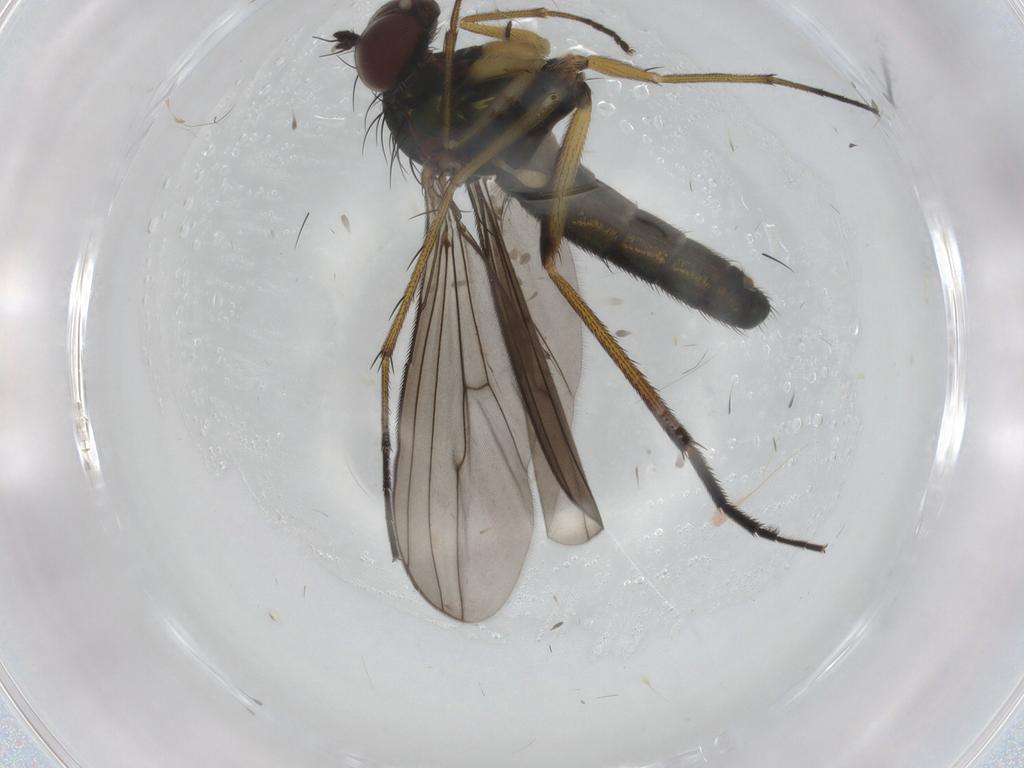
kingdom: Animalia
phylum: Arthropoda
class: Insecta
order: Diptera
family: Dolichopodidae
